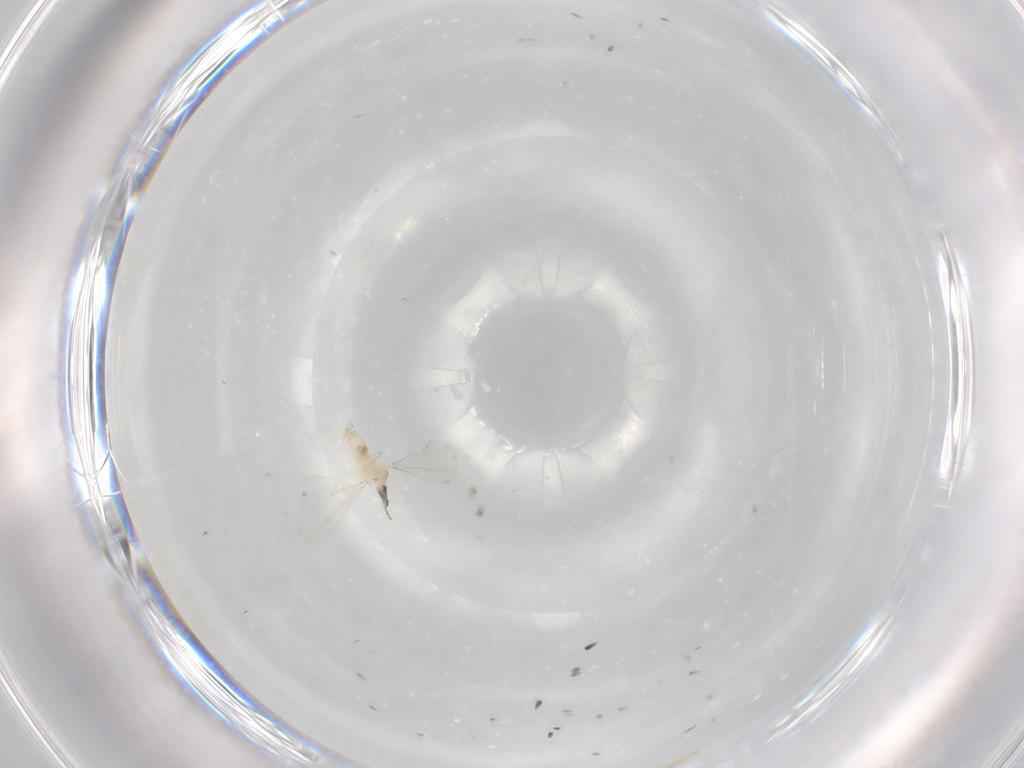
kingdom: Animalia
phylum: Arthropoda
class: Insecta
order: Diptera
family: Cecidomyiidae
